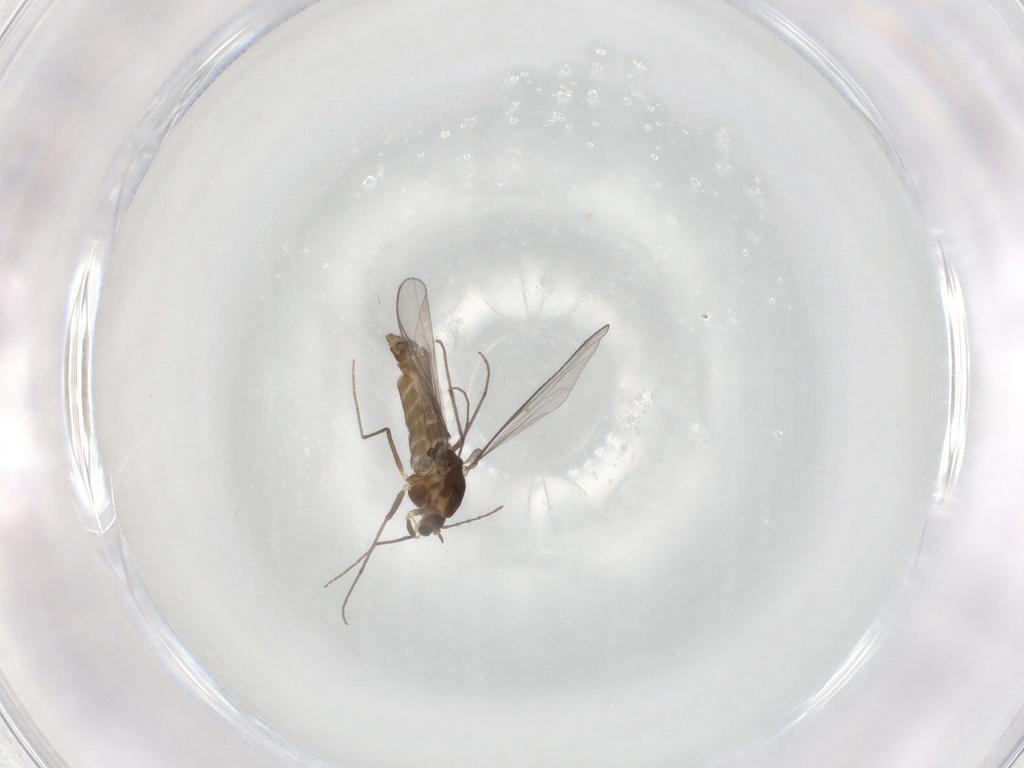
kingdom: Animalia
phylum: Arthropoda
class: Insecta
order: Diptera
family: Chironomidae
